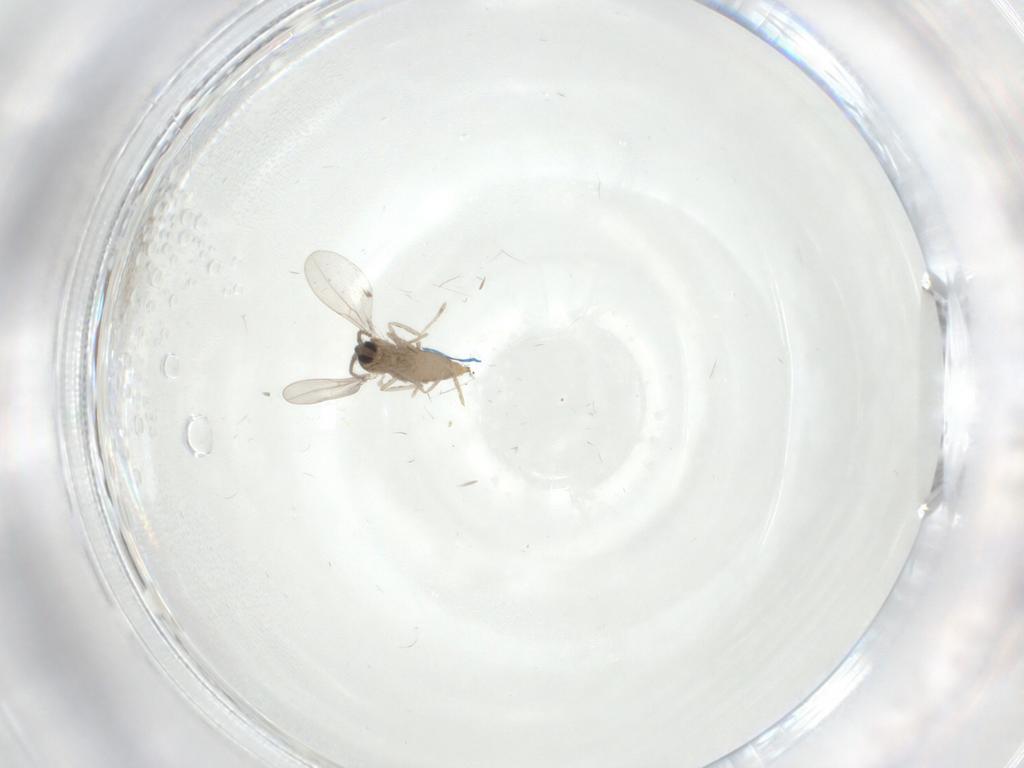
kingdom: Animalia
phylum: Arthropoda
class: Insecta
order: Diptera
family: Cecidomyiidae
